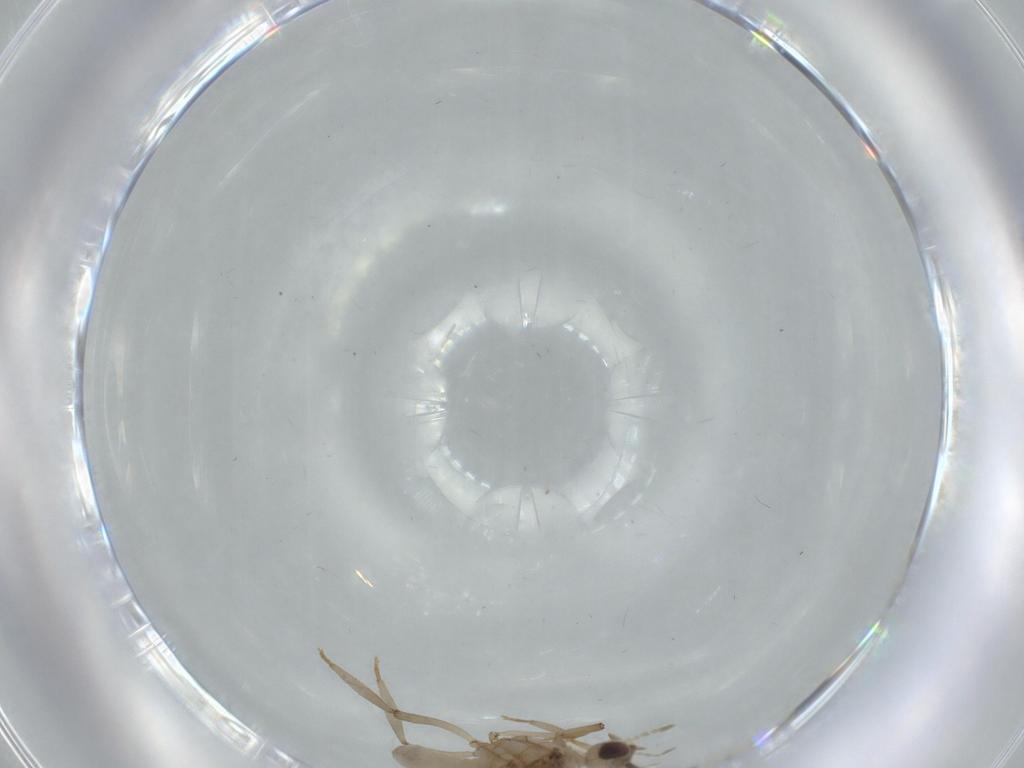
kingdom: Animalia
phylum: Arthropoda
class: Insecta
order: Neuroptera
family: Coniopterygidae
